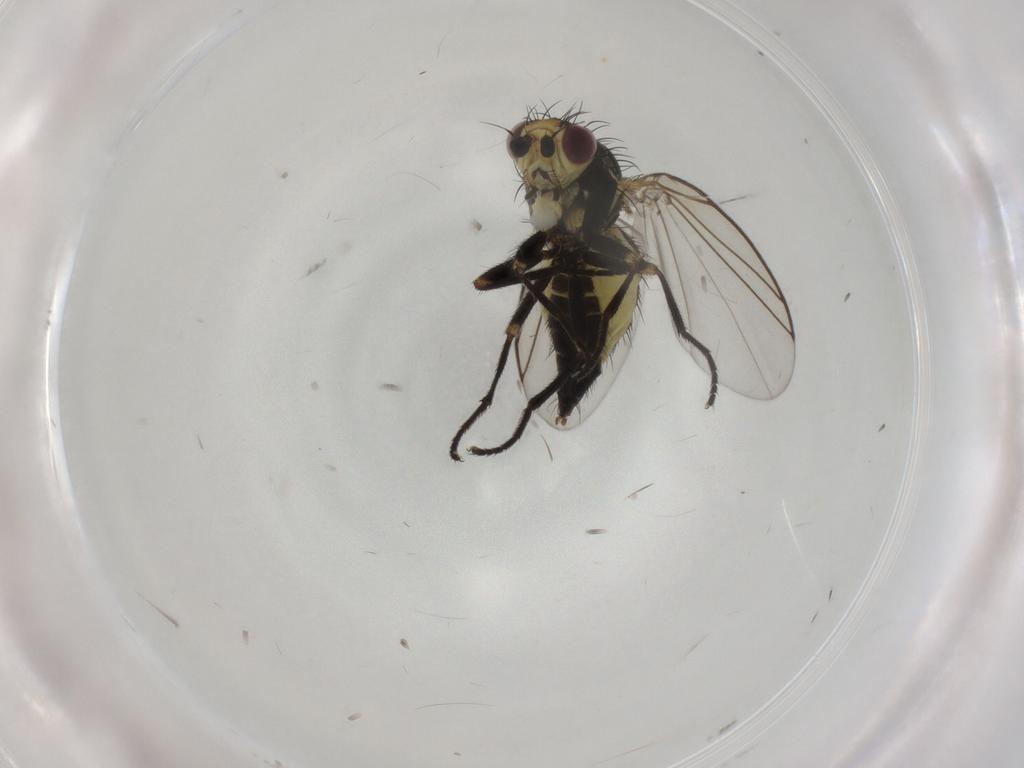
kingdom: Animalia
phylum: Arthropoda
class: Insecta
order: Diptera
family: Agromyzidae
